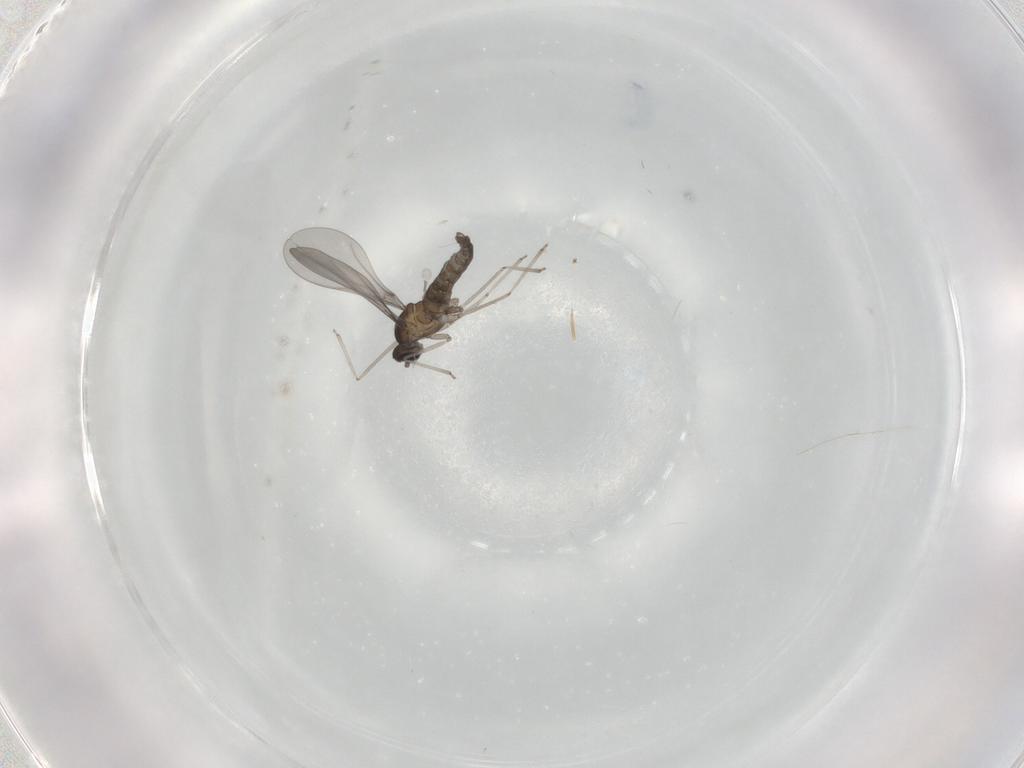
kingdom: Animalia
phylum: Arthropoda
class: Insecta
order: Diptera
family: Cecidomyiidae
